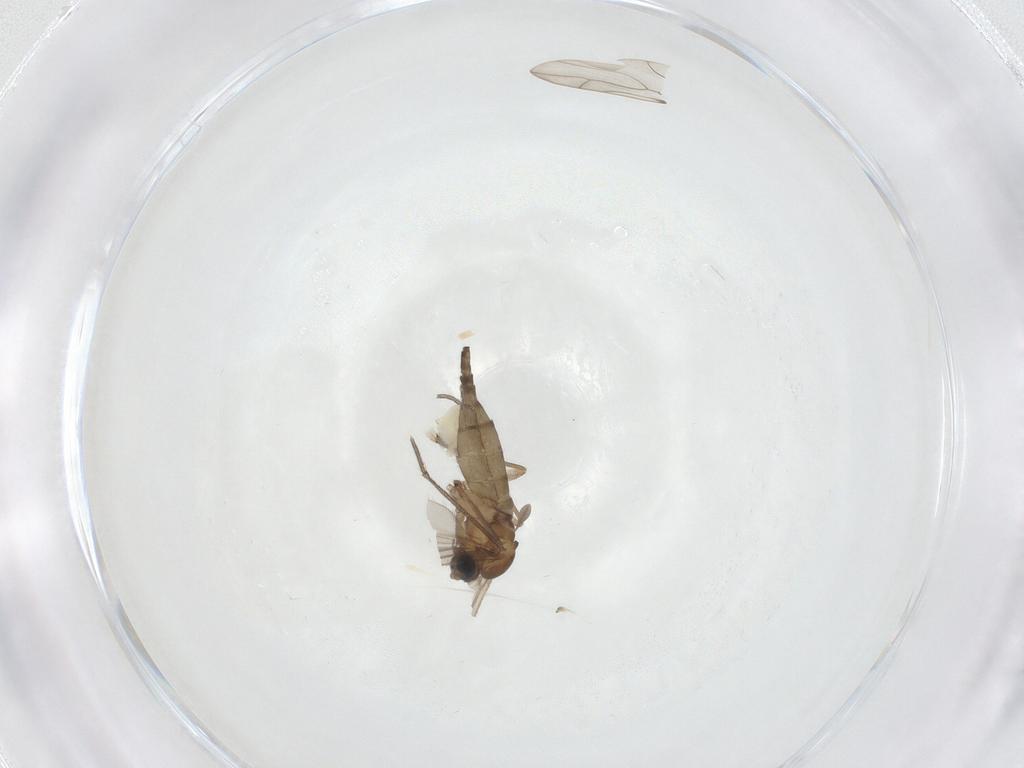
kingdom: Animalia
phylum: Arthropoda
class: Insecta
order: Diptera
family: Sciaridae
